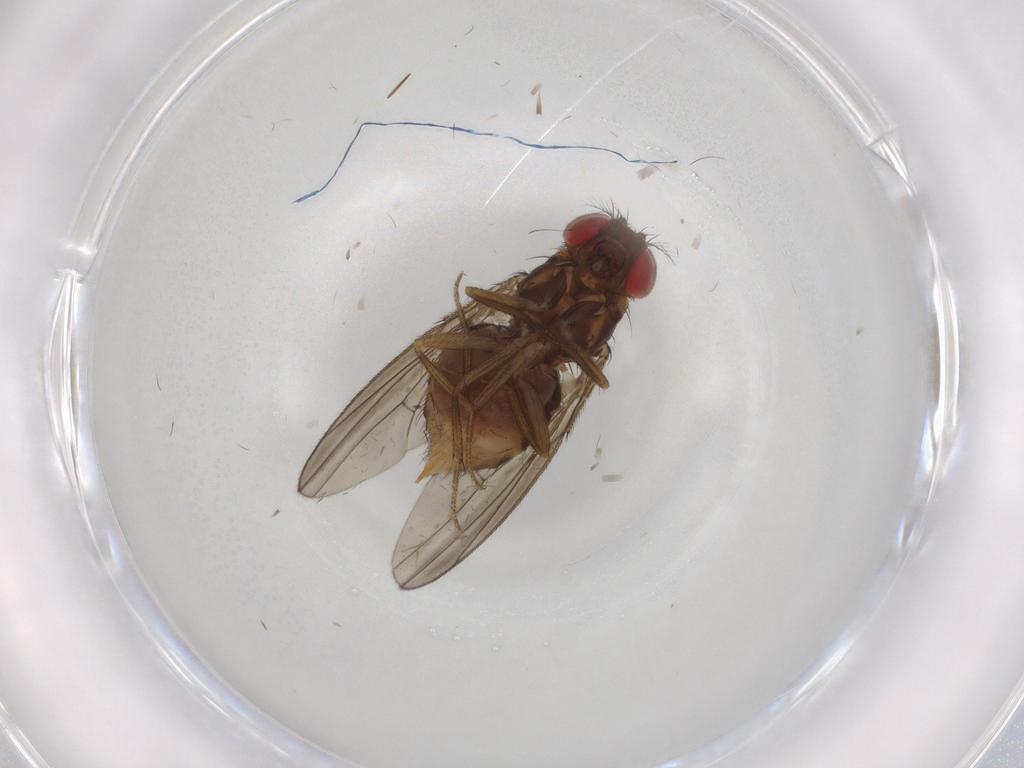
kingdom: Animalia
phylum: Arthropoda
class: Insecta
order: Diptera
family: Drosophilidae
